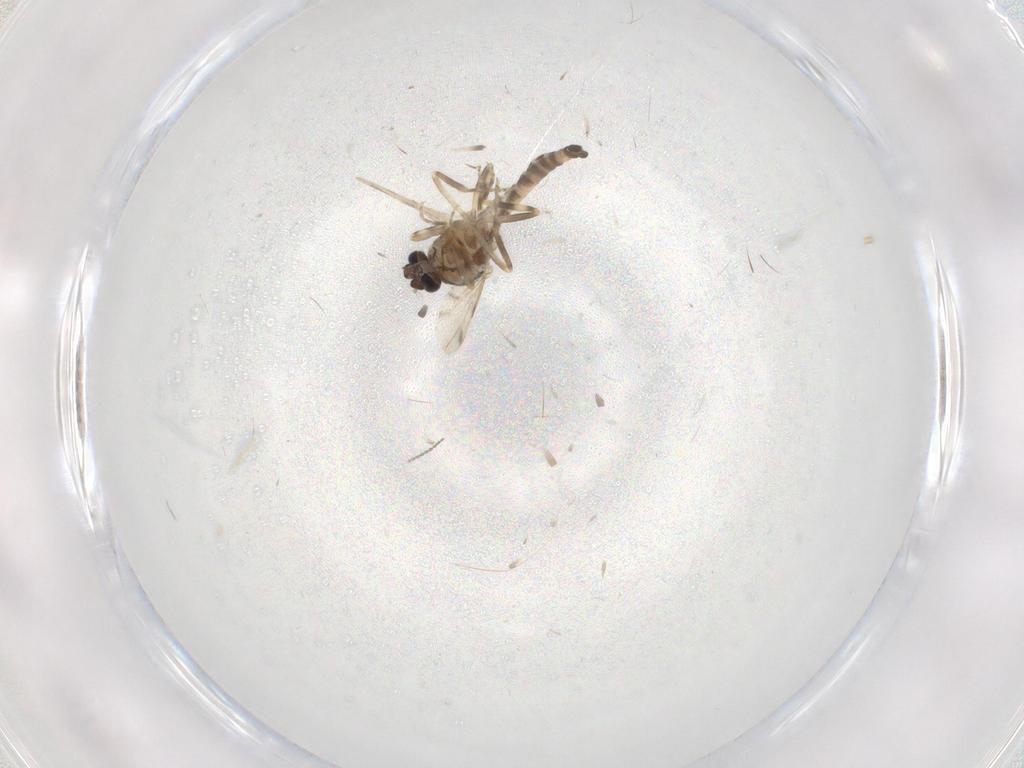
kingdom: Animalia
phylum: Arthropoda
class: Insecta
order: Diptera
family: Ceratopogonidae
